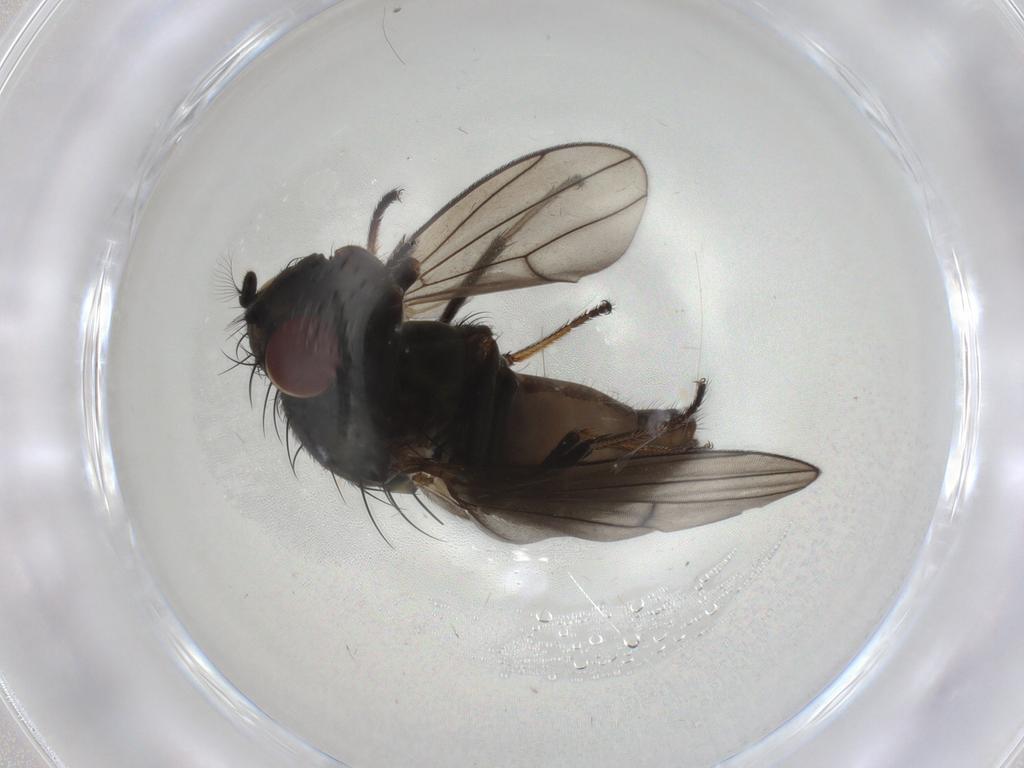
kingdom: Animalia
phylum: Arthropoda
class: Insecta
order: Diptera
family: Ephydridae
